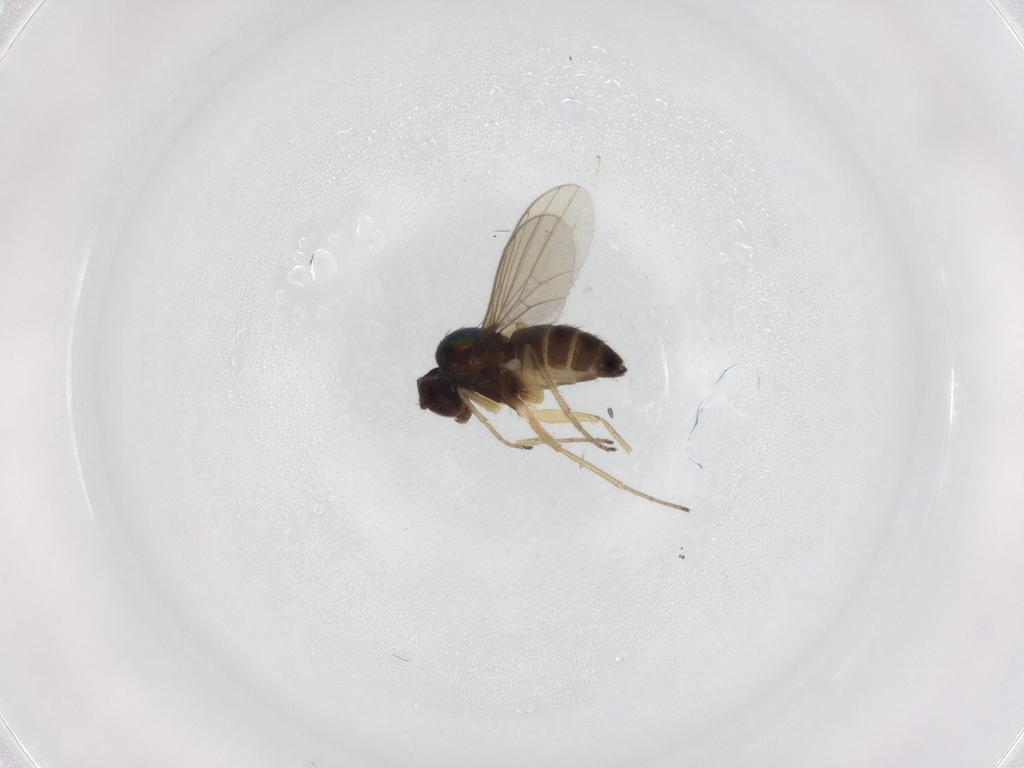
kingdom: Animalia
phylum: Arthropoda
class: Insecta
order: Diptera
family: Dolichopodidae
